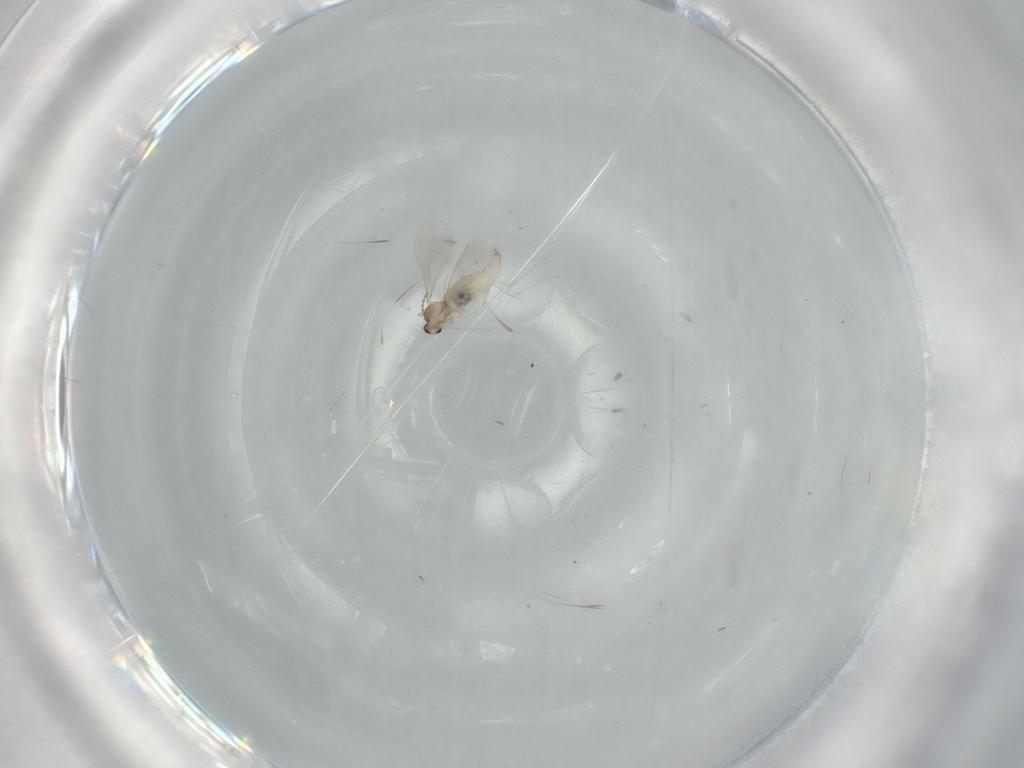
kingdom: Animalia
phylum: Arthropoda
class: Insecta
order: Diptera
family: Cecidomyiidae
